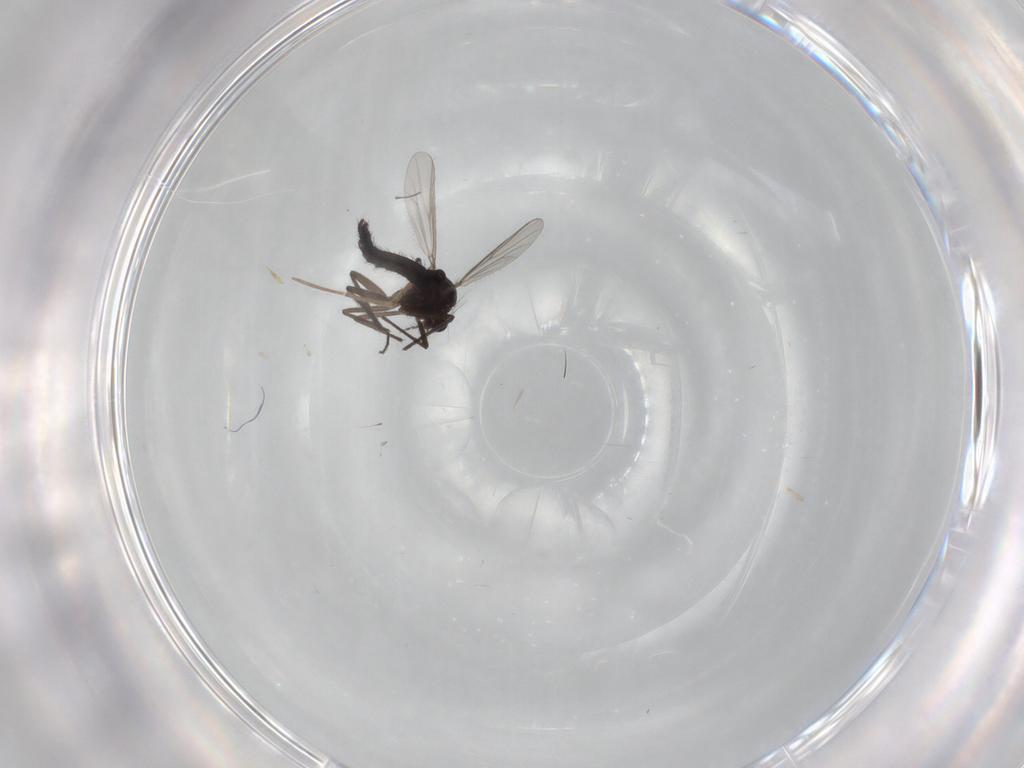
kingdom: Animalia
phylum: Arthropoda
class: Insecta
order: Diptera
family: Chironomidae
